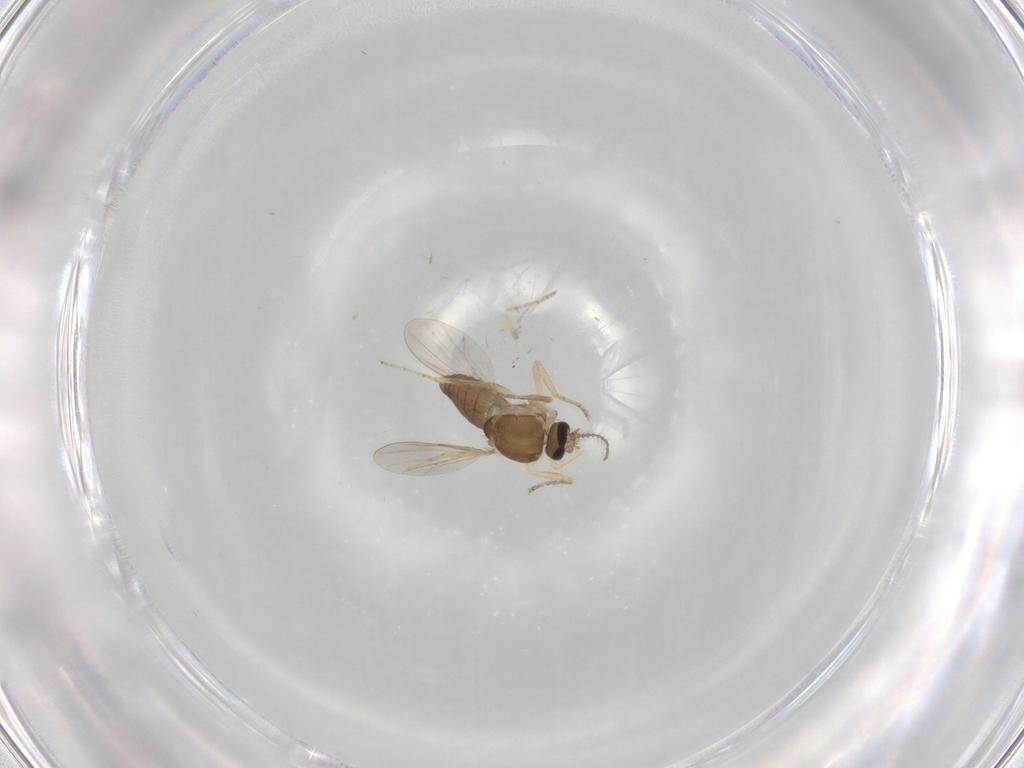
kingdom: Animalia
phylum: Arthropoda
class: Insecta
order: Diptera
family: Ceratopogonidae
